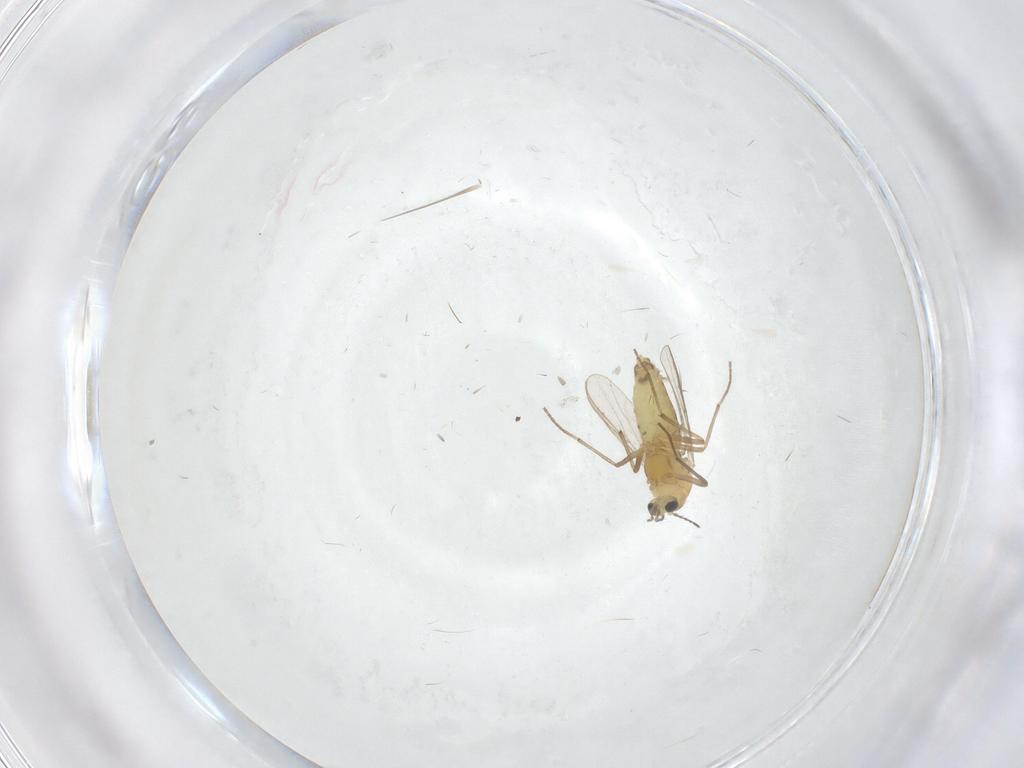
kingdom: Animalia
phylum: Arthropoda
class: Insecta
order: Diptera
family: Chironomidae
